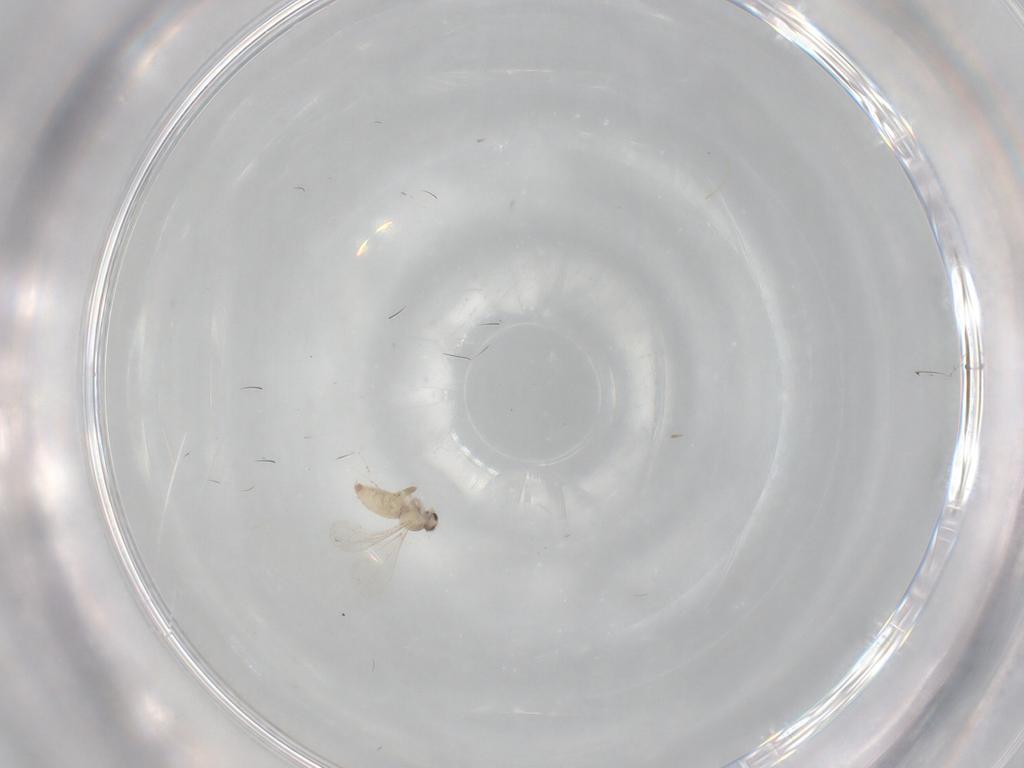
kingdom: Animalia
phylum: Arthropoda
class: Insecta
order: Diptera
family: Cecidomyiidae
